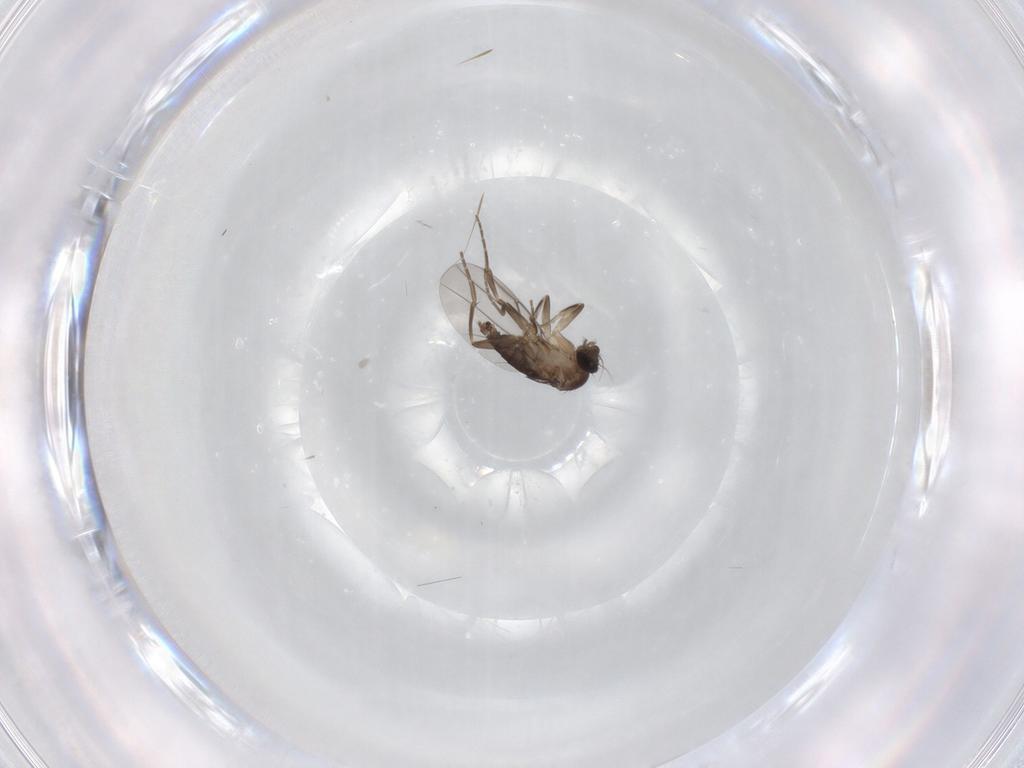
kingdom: Animalia
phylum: Arthropoda
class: Insecta
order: Diptera
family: Phoridae
